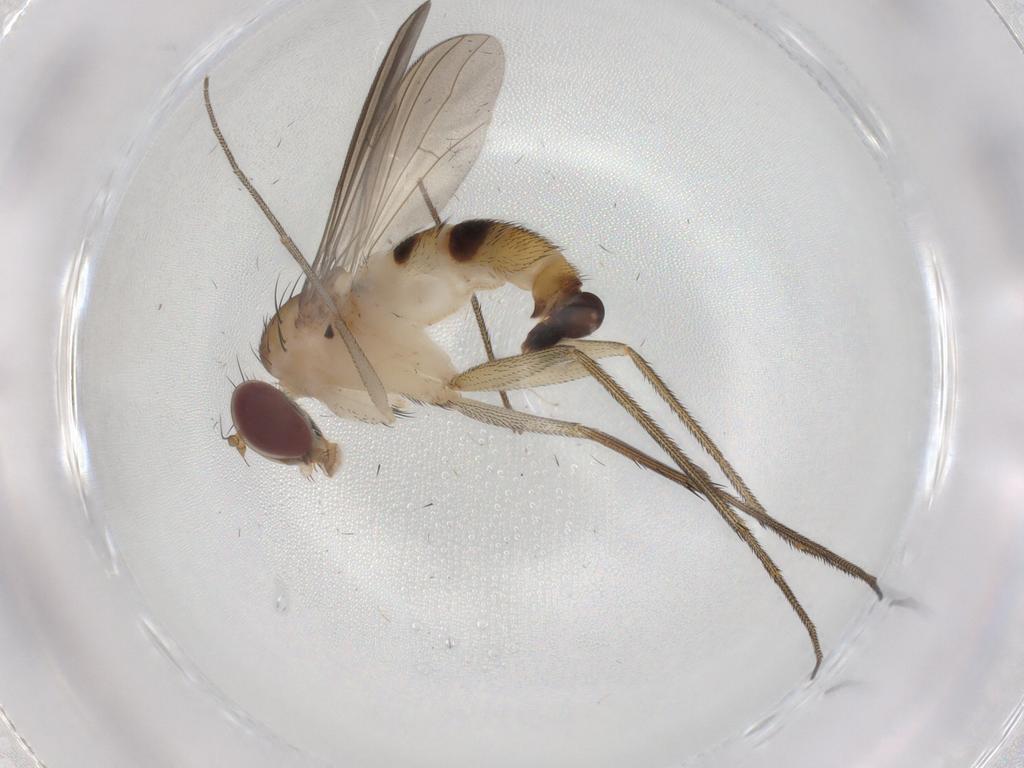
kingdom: Animalia
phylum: Arthropoda
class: Insecta
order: Diptera
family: Dolichopodidae
